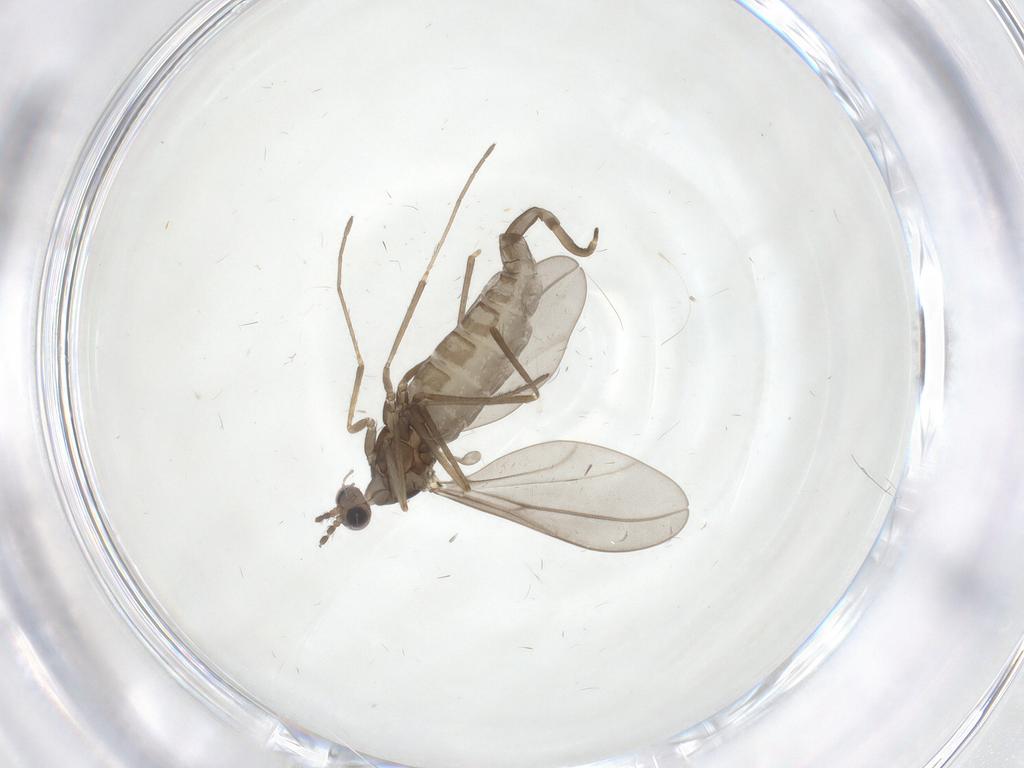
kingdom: Animalia
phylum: Arthropoda
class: Insecta
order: Diptera
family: Cecidomyiidae
